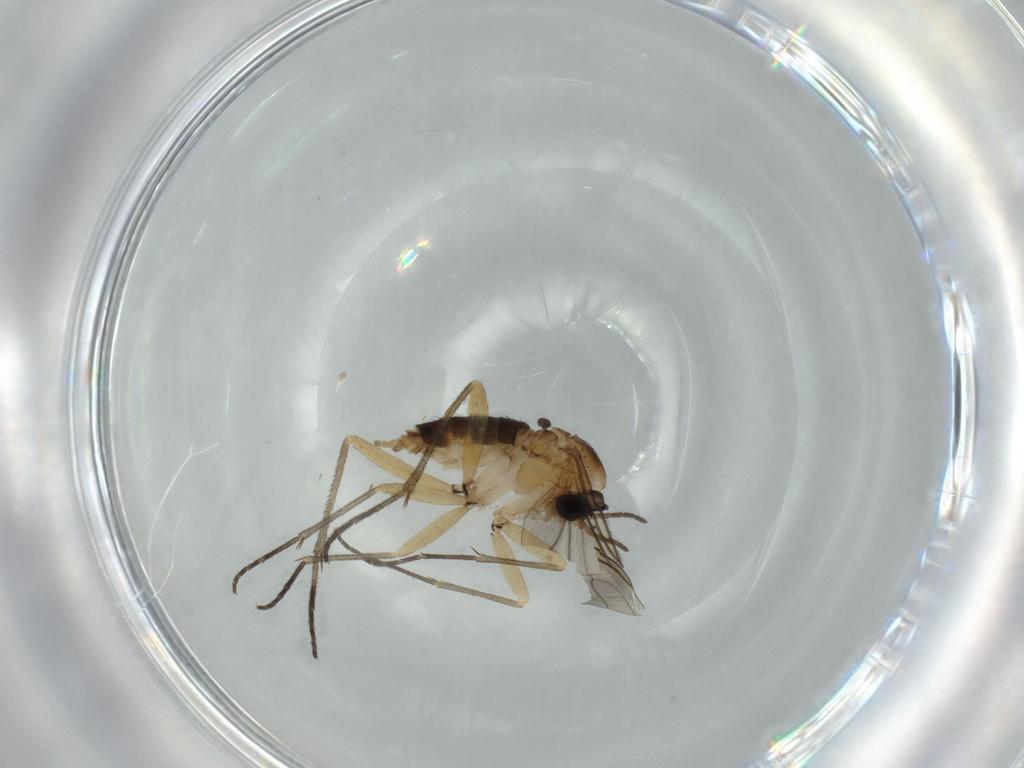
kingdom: Animalia
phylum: Arthropoda
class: Insecta
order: Diptera
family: Sciaridae
